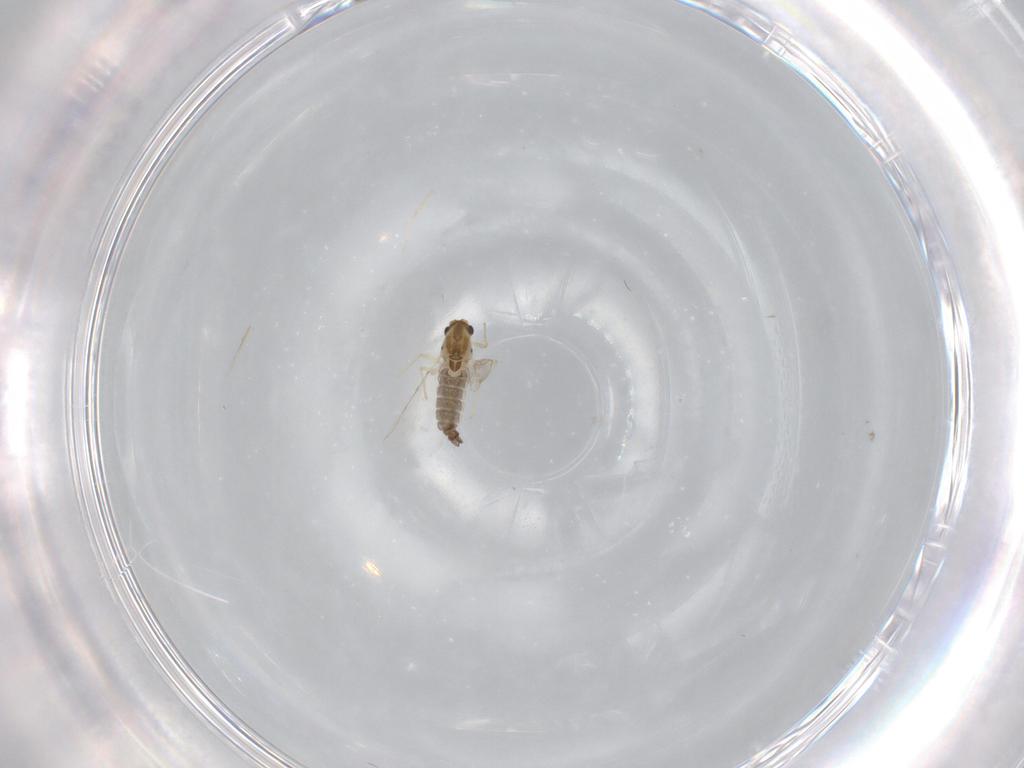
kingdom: Animalia
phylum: Arthropoda
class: Insecta
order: Diptera
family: Chironomidae
